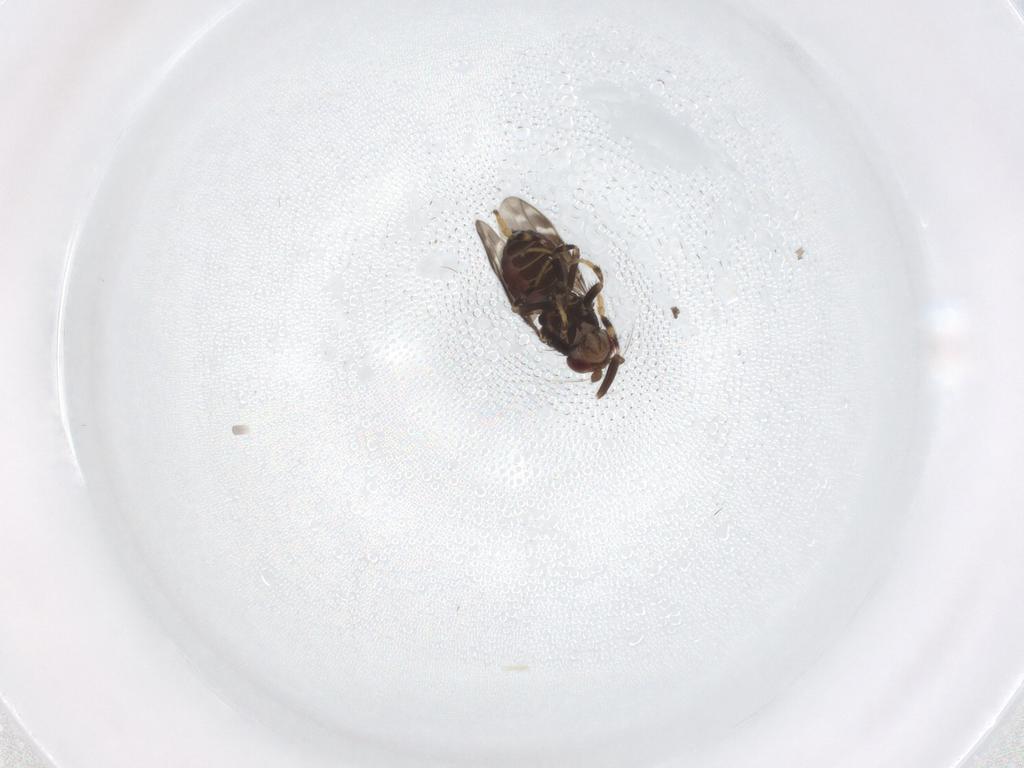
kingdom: Animalia
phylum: Arthropoda
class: Insecta
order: Diptera
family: Sphaeroceridae
